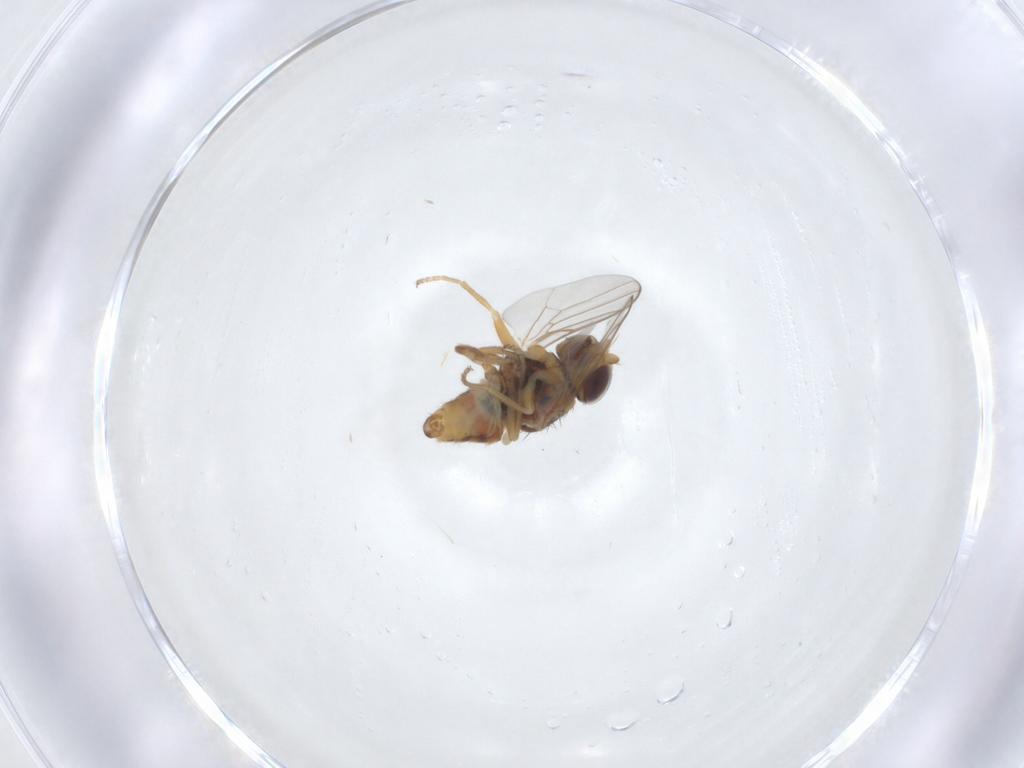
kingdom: Animalia
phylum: Arthropoda
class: Insecta
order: Diptera
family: Chloropidae
